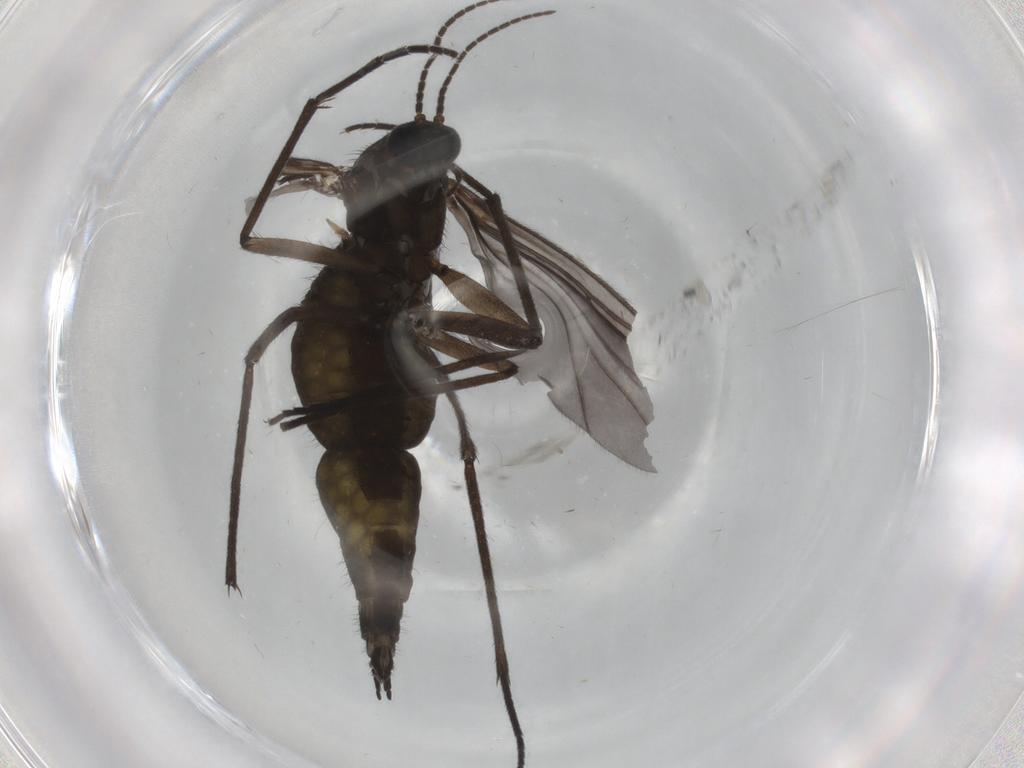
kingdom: Animalia
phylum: Arthropoda
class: Insecta
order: Diptera
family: Sciaridae
